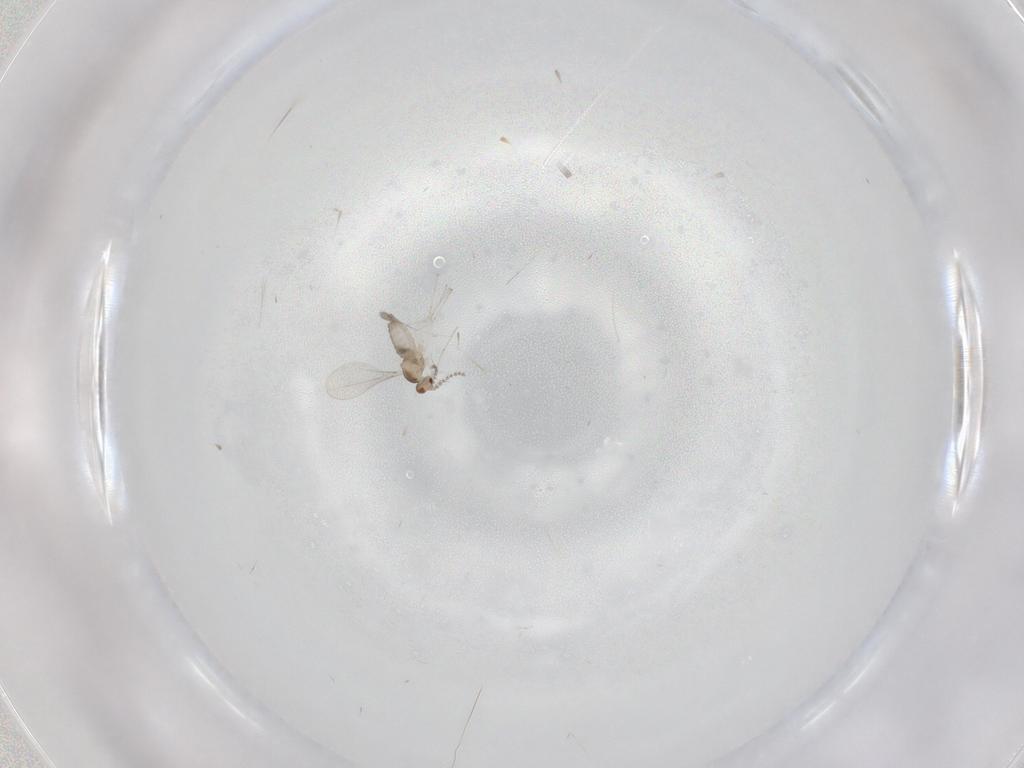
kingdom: Animalia
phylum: Arthropoda
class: Insecta
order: Diptera
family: Cecidomyiidae
